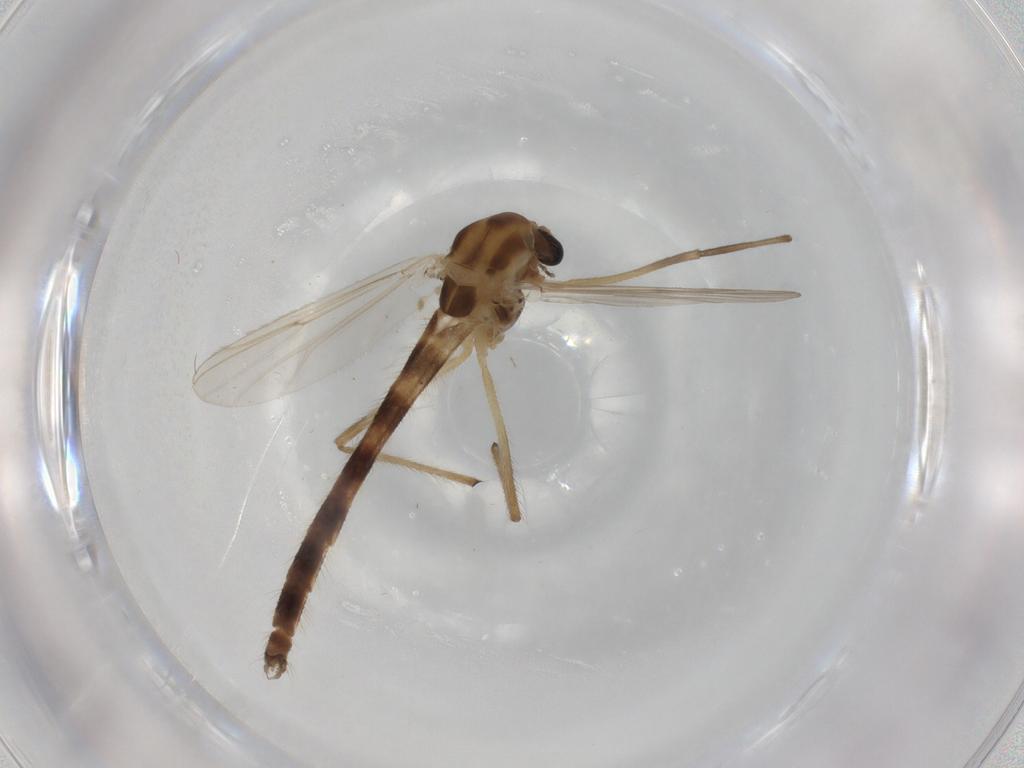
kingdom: Animalia
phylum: Arthropoda
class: Insecta
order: Diptera
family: Chironomidae
